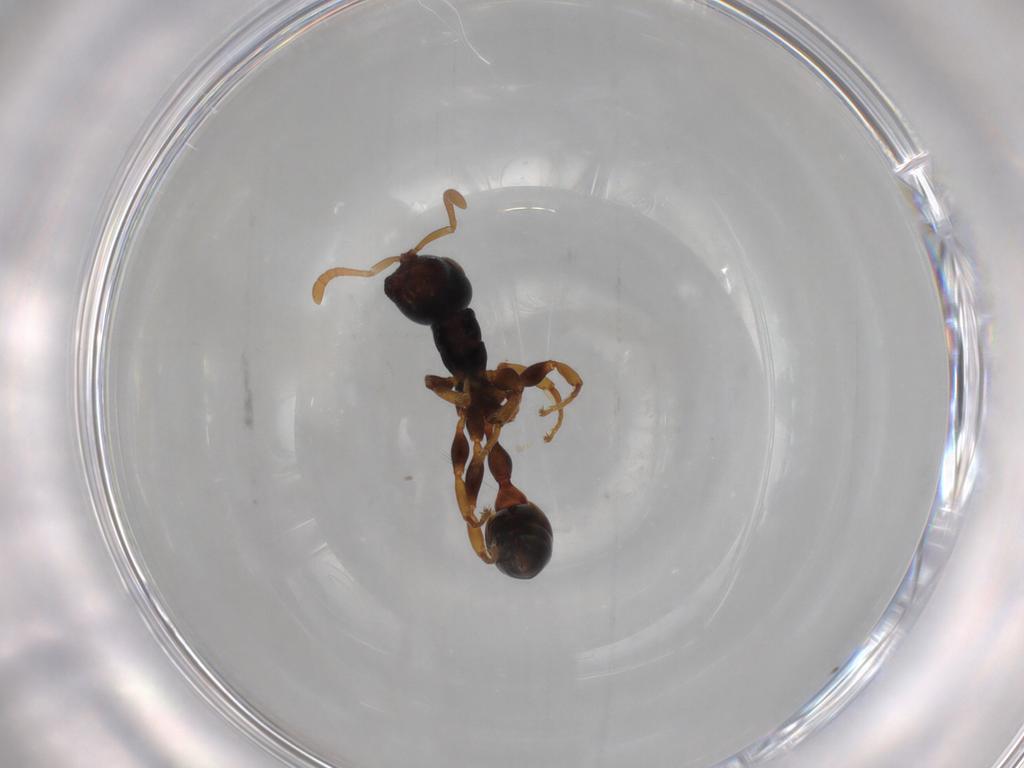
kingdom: Animalia
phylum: Arthropoda
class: Insecta
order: Hymenoptera
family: Formicidae
